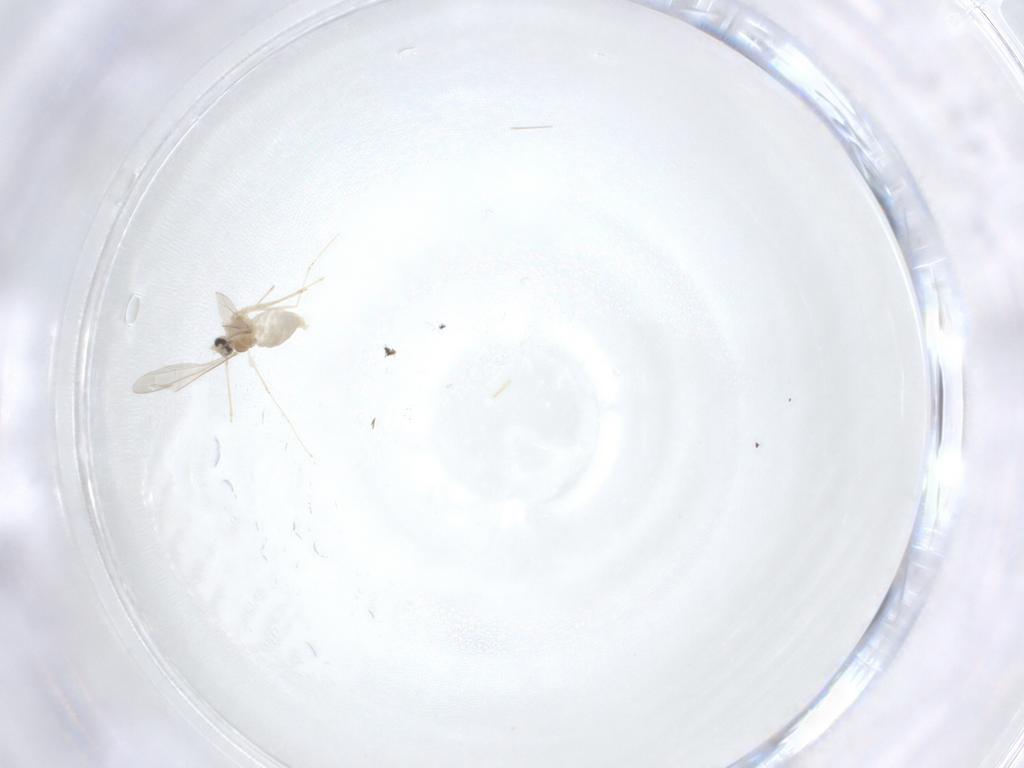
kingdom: Animalia
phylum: Arthropoda
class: Insecta
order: Diptera
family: Cecidomyiidae
